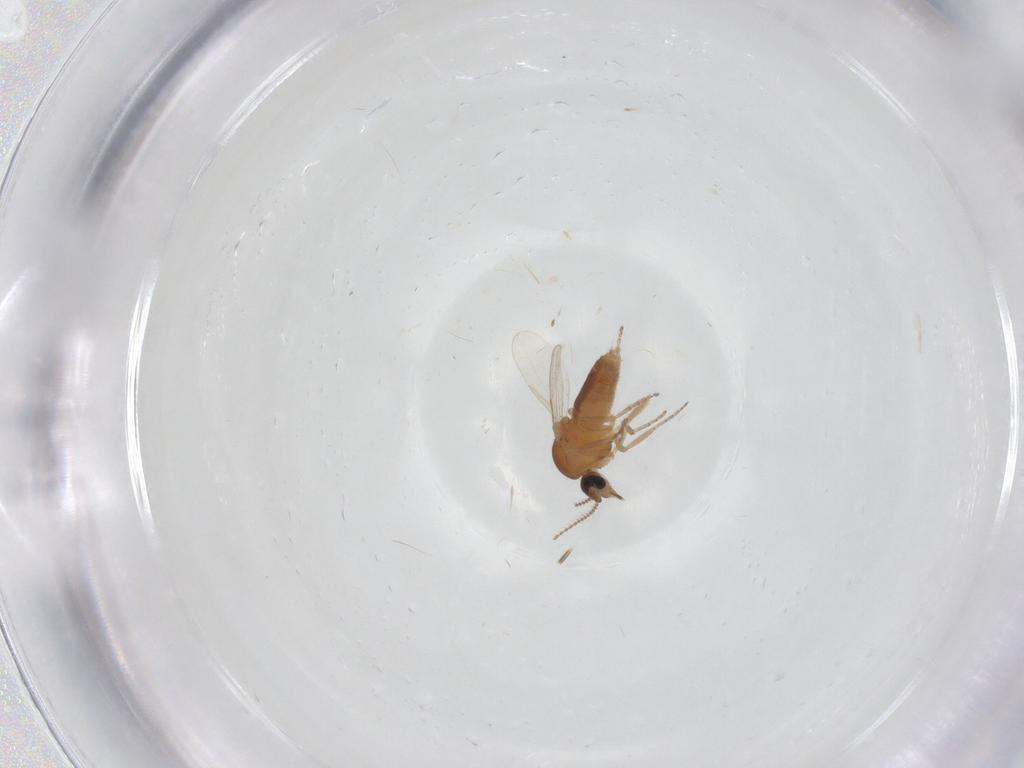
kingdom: Animalia
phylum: Arthropoda
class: Insecta
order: Diptera
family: Ceratopogonidae
